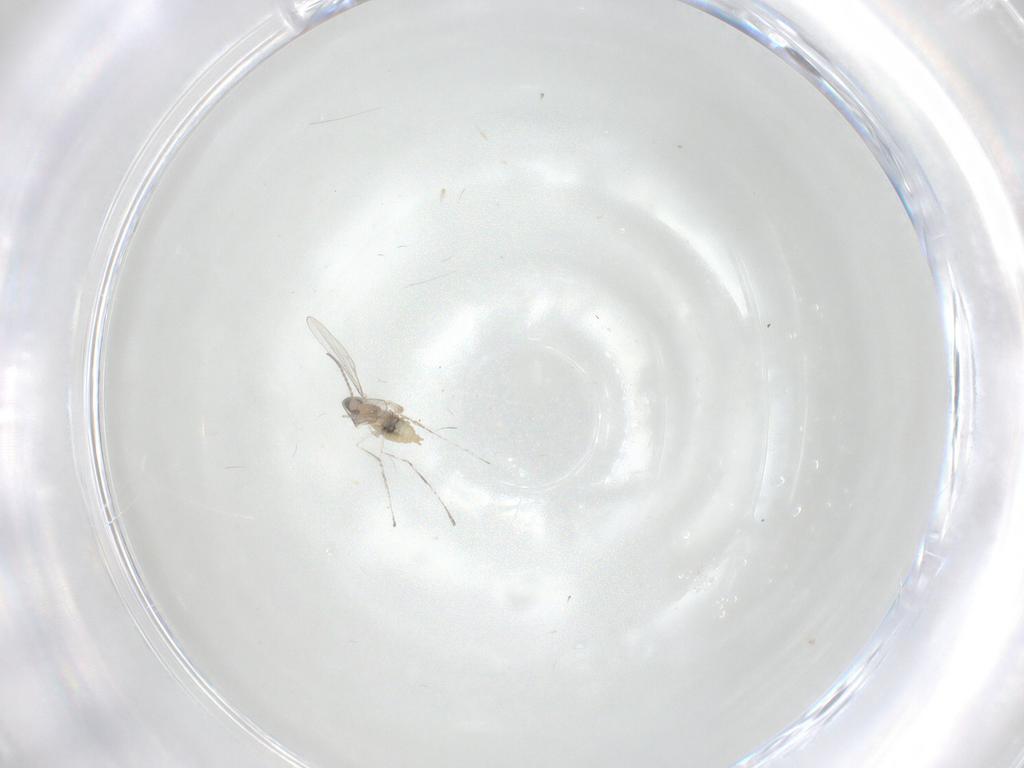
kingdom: Animalia
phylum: Arthropoda
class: Insecta
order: Diptera
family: Cecidomyiidae
